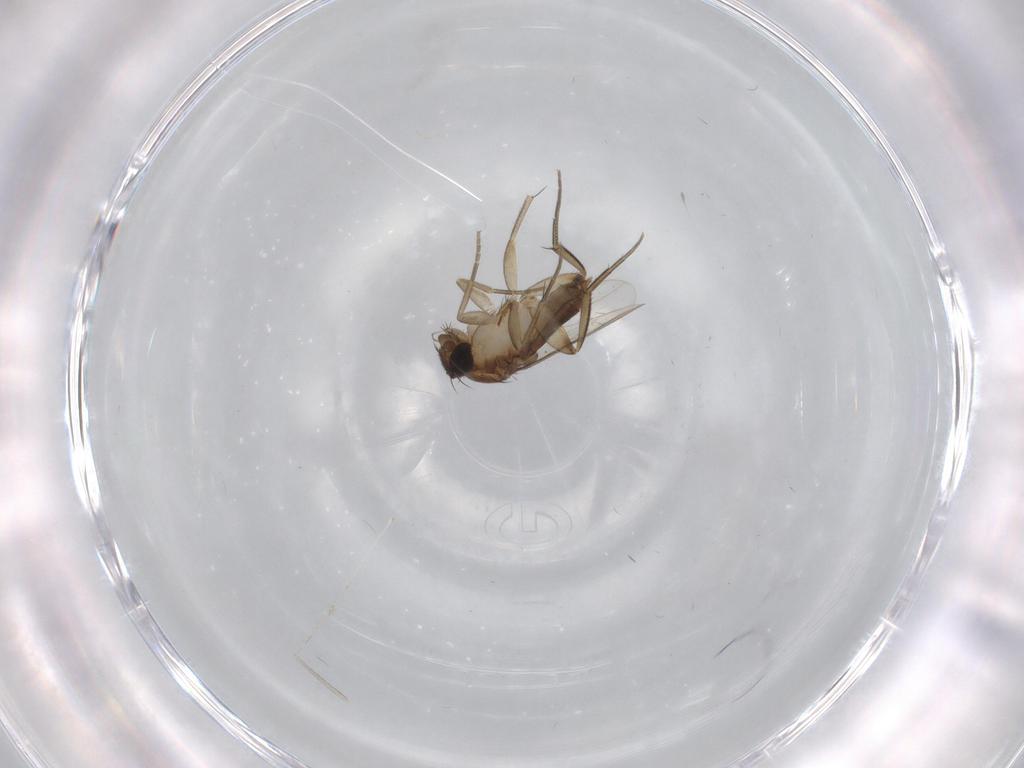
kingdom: Animalia
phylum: Arthropoda
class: Insecta
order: Diptera
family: Phoridae
